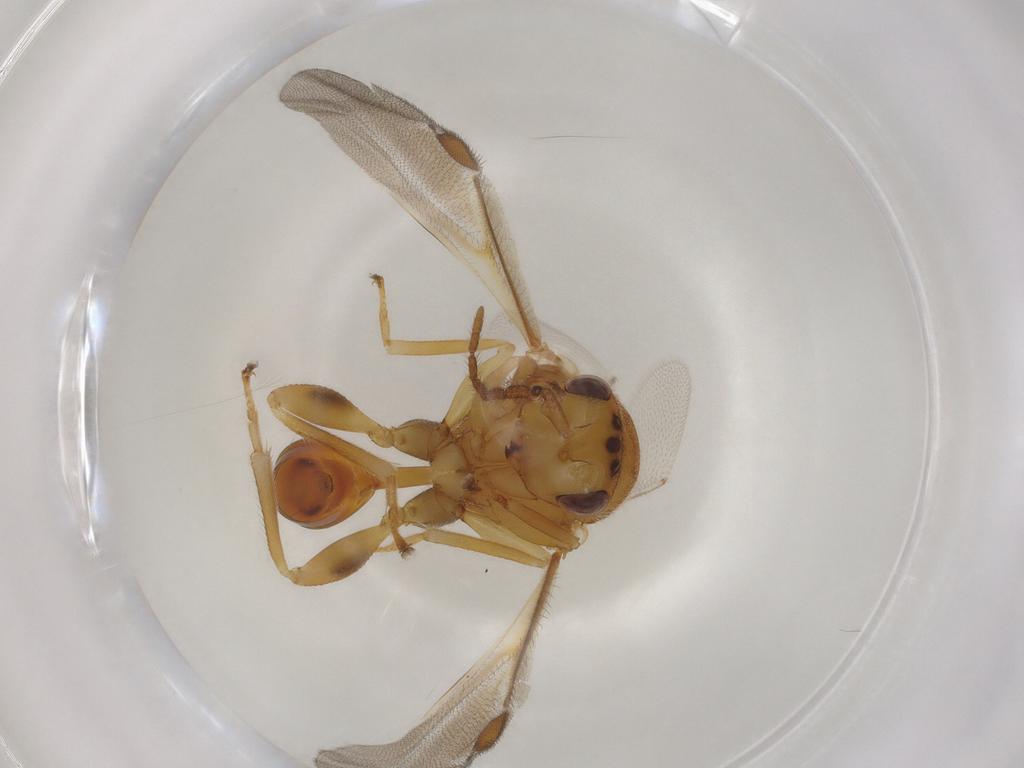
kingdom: Animalia
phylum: Arthropoda
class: Insecta
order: Hymenoptera
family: Eurytomidae
